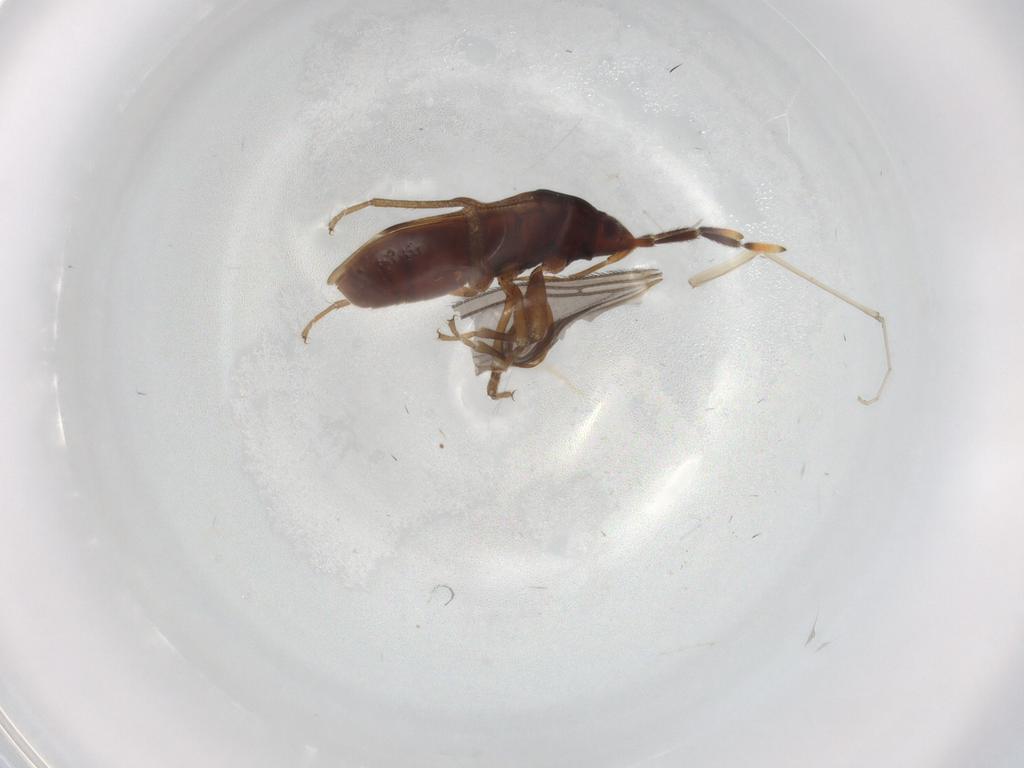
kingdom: Animalia
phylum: Arthropoda
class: Insecta
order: Hemiptera
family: Rhyparochromidae
